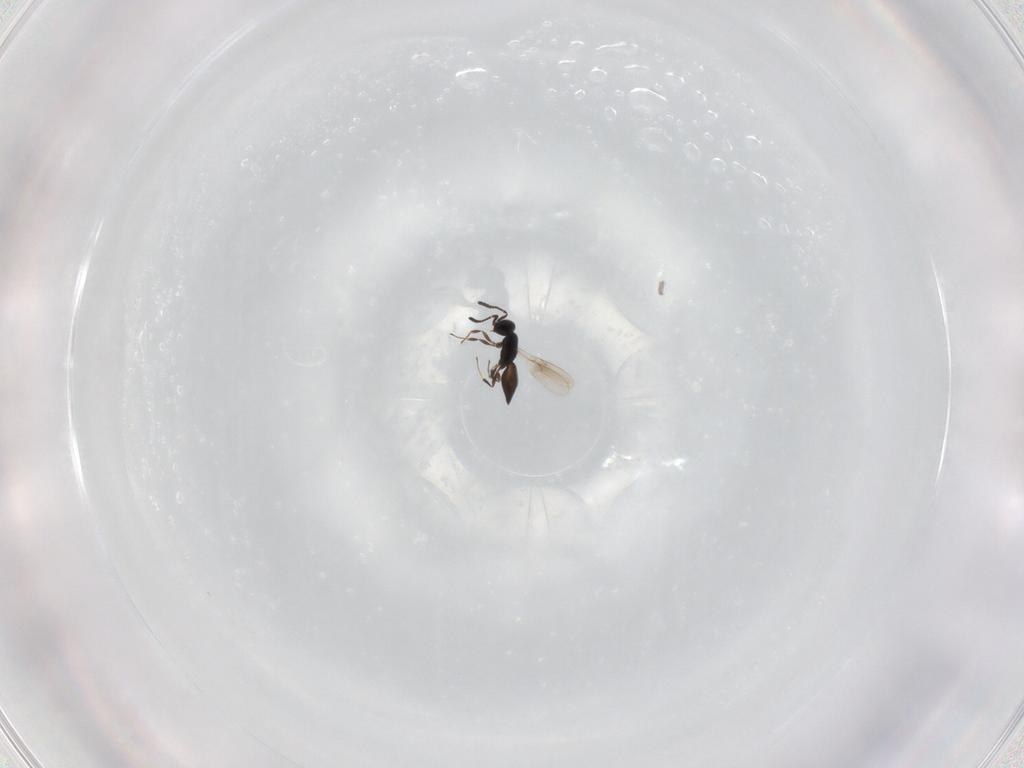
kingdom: Animalia
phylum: Arthropoda
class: Insecta
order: Hymenoptera
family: Scelionidae
